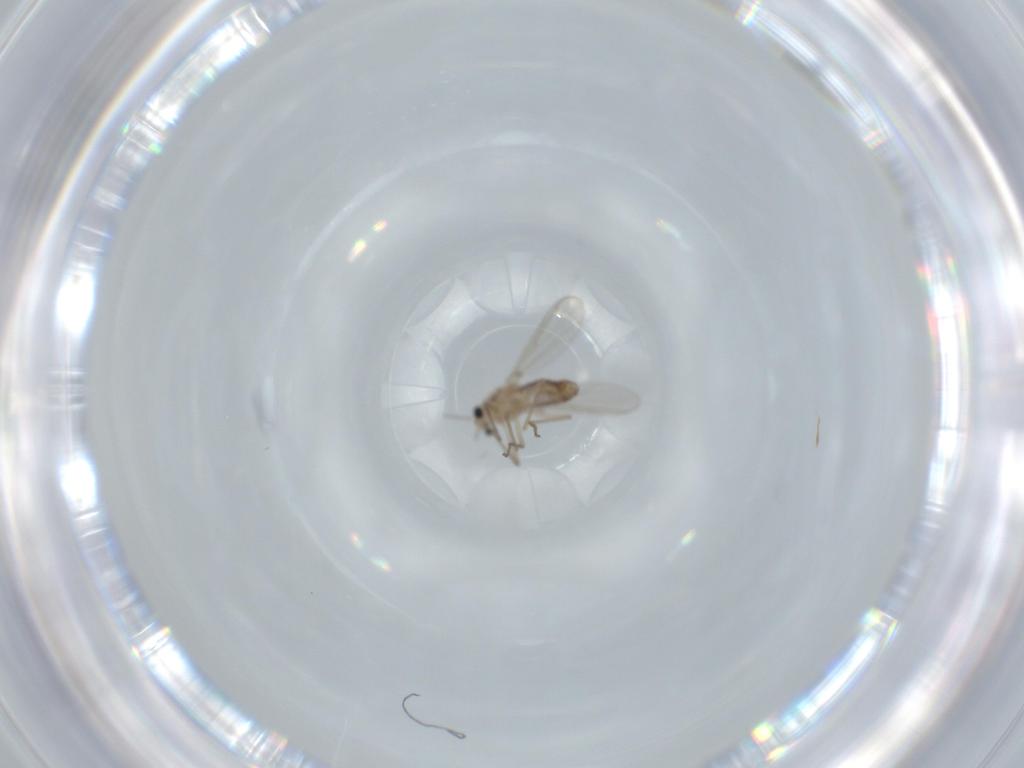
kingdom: Animalia
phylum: Arthropoda
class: Insecta
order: Diptera
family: Chironomidae
